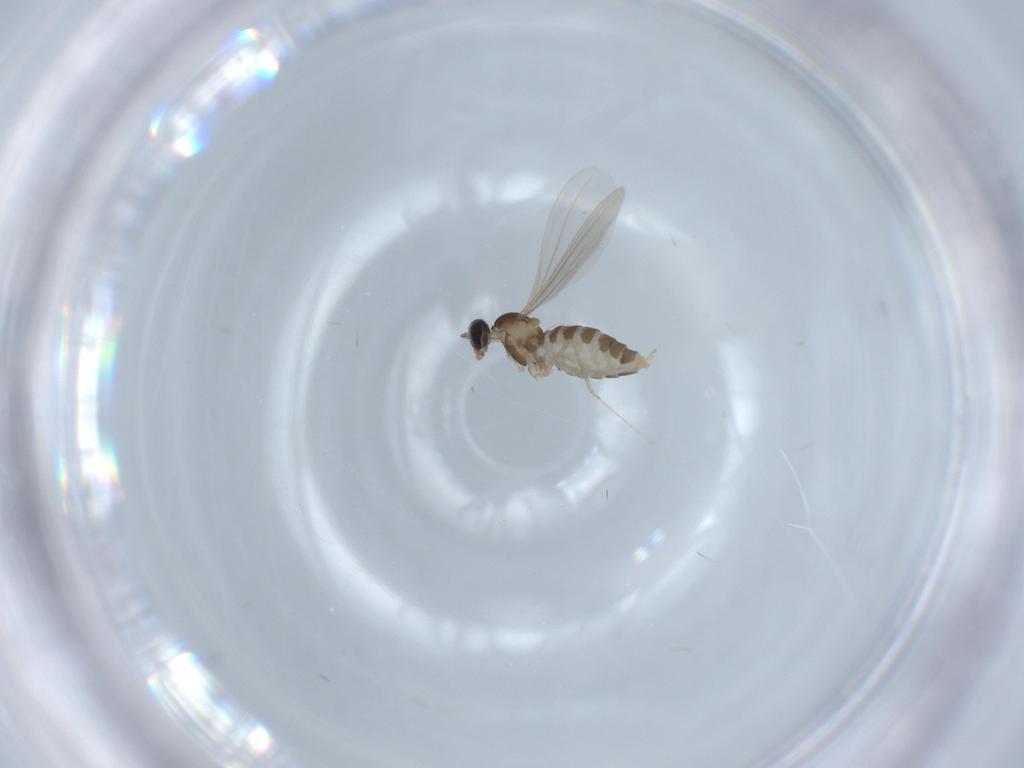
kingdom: Animalia
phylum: Arthropoda
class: Insecta
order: Diptera
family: Cecidomyiidae
